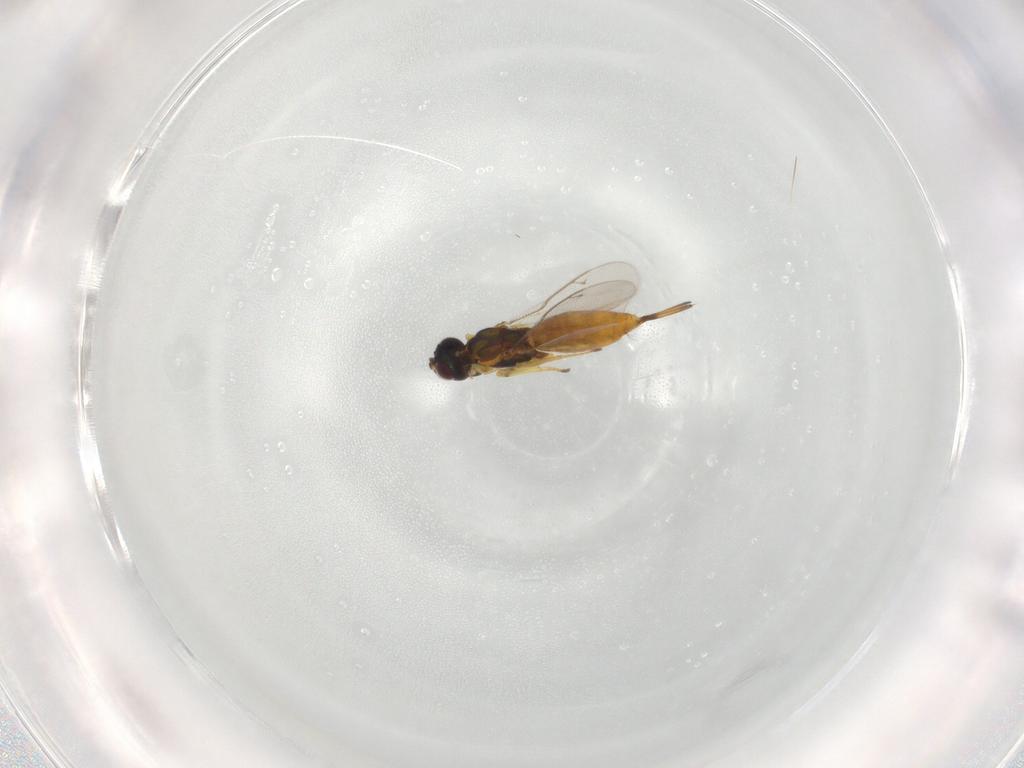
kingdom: Animalia
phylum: Arthropoda
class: Insecta
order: Hymenoptera
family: Eupelmidae
